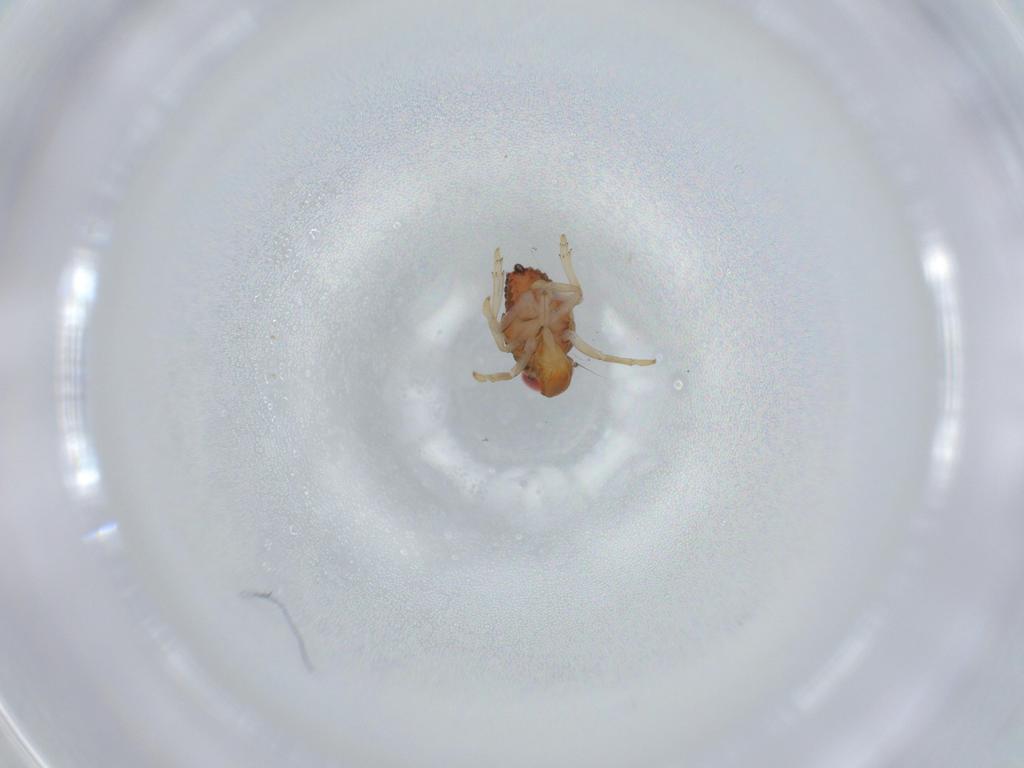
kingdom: Animalia
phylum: Arthropoda
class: Insecta
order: Hemiptera
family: Issidae
